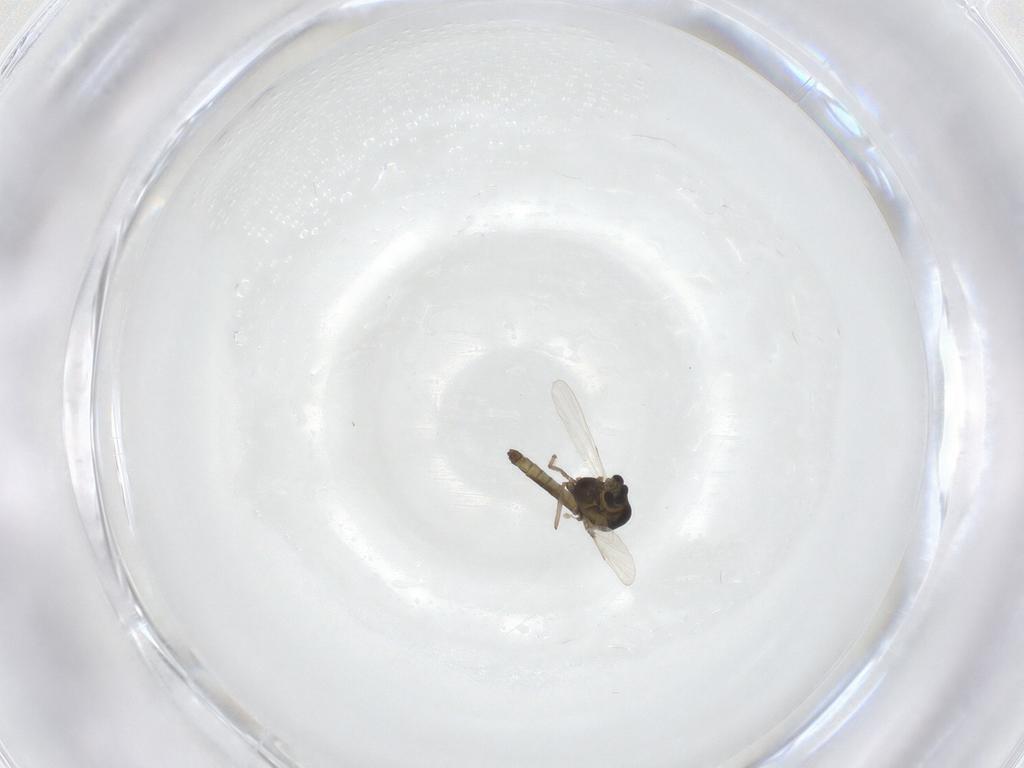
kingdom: Animalia
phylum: Arthropoda
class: Insecta
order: Diptera
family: Chironomidae
